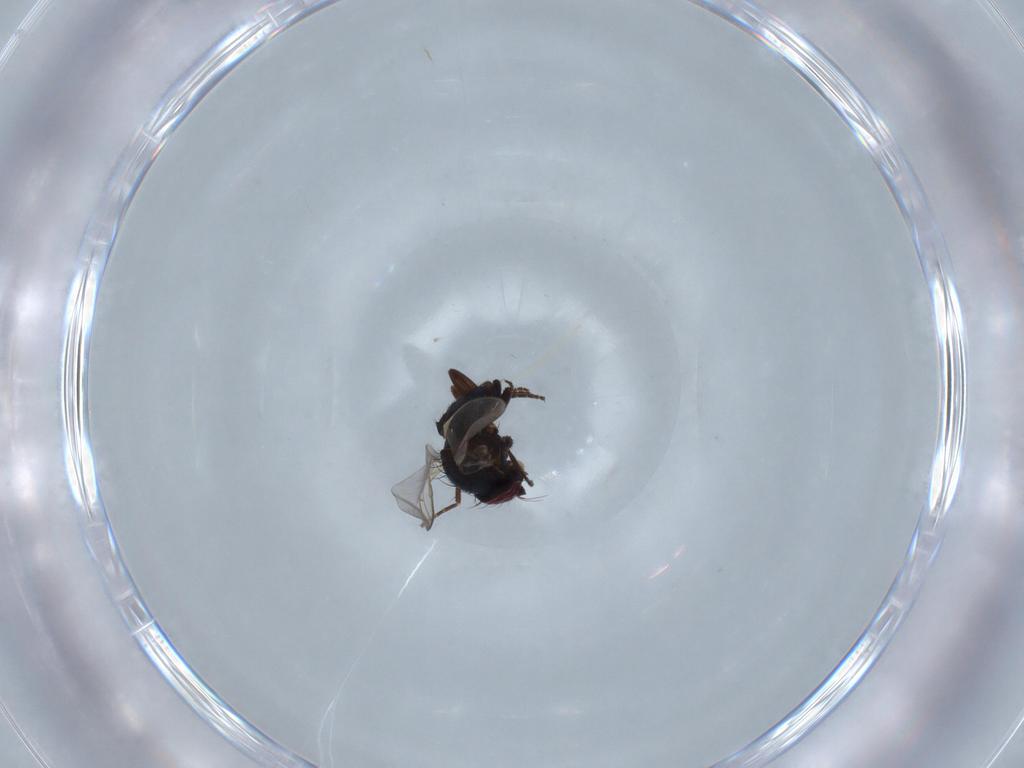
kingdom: Animalia
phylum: Arthropoda
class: Insecta
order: Diptera
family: Agromyzidae
